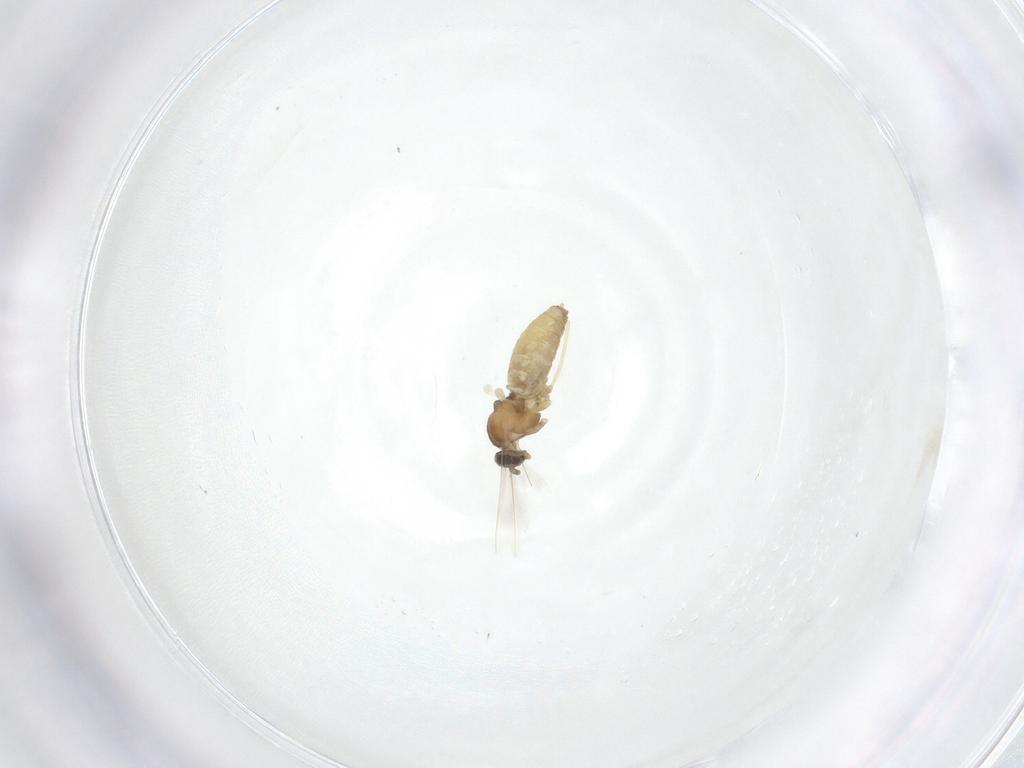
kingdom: Animalia
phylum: Arthropoda
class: Insecta
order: Diptera
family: Cecidomyiidae
